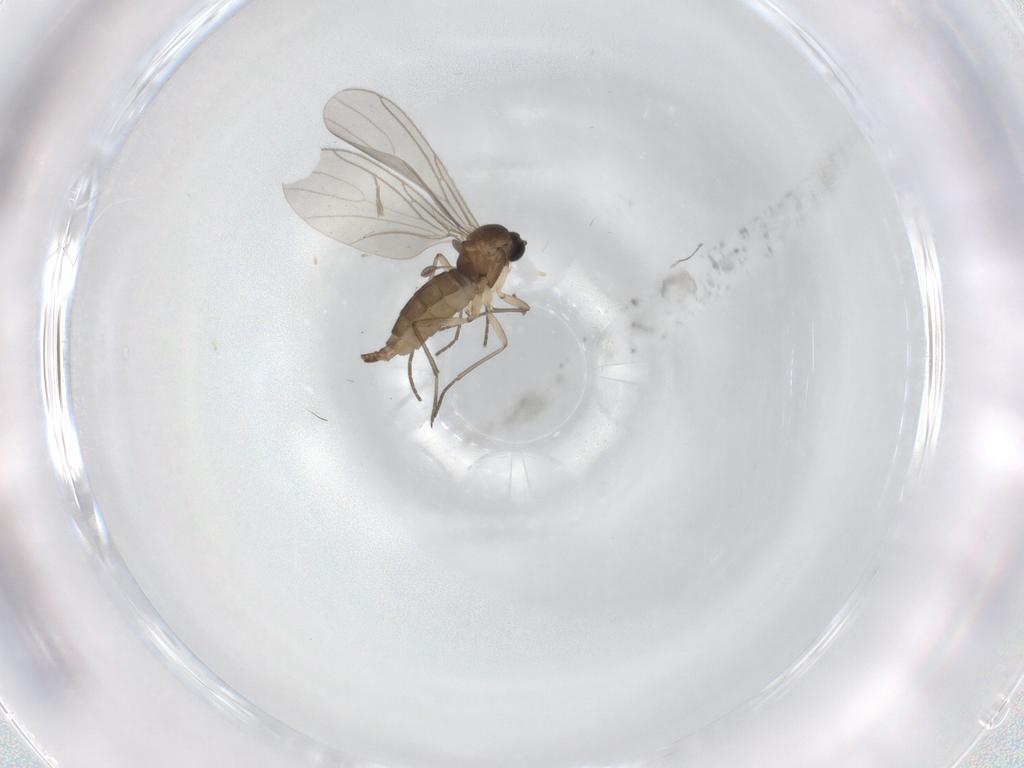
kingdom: Animalia
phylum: Arthropoda
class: Insecta
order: Diptera
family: Sciaridae
